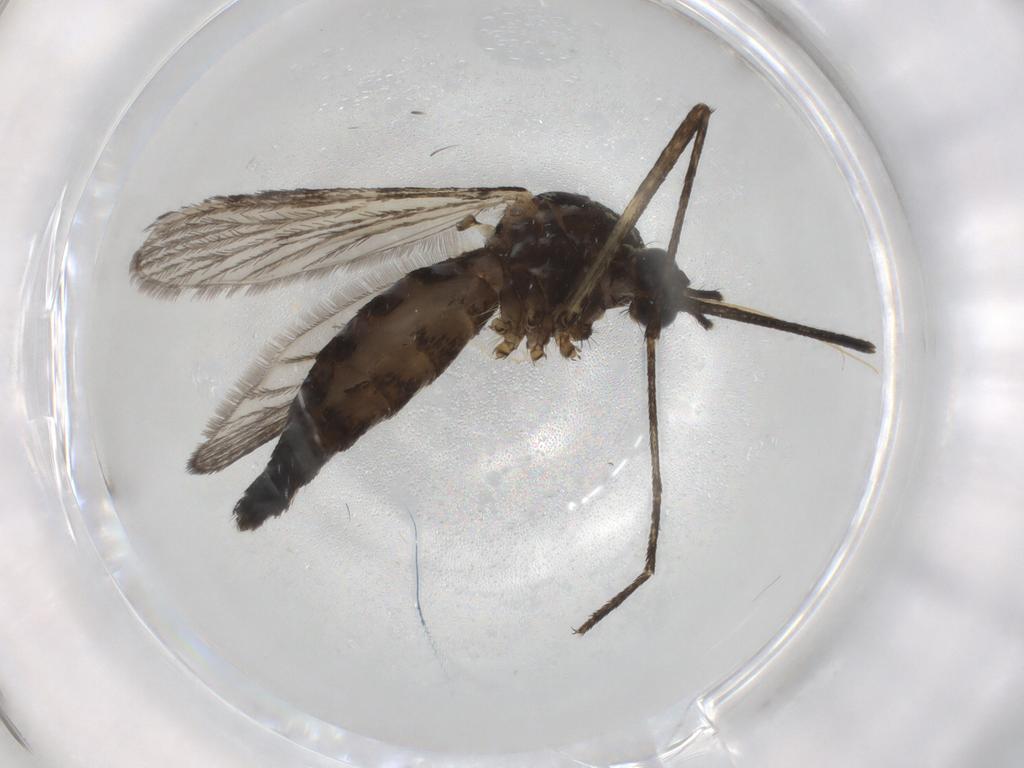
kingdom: Animalia
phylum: Arthropoda
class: Insecta
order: Diptera
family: Culicidae
